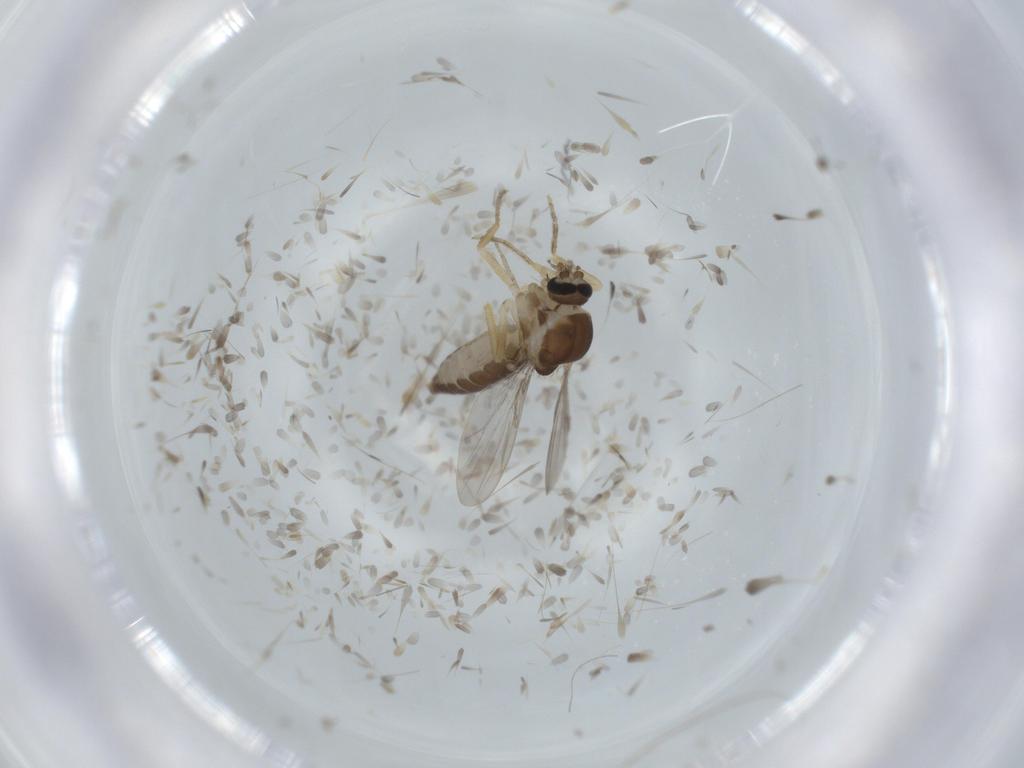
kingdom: Animalia
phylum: Arthropoda
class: Insecta
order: Diptera
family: Ceratopogonidae
